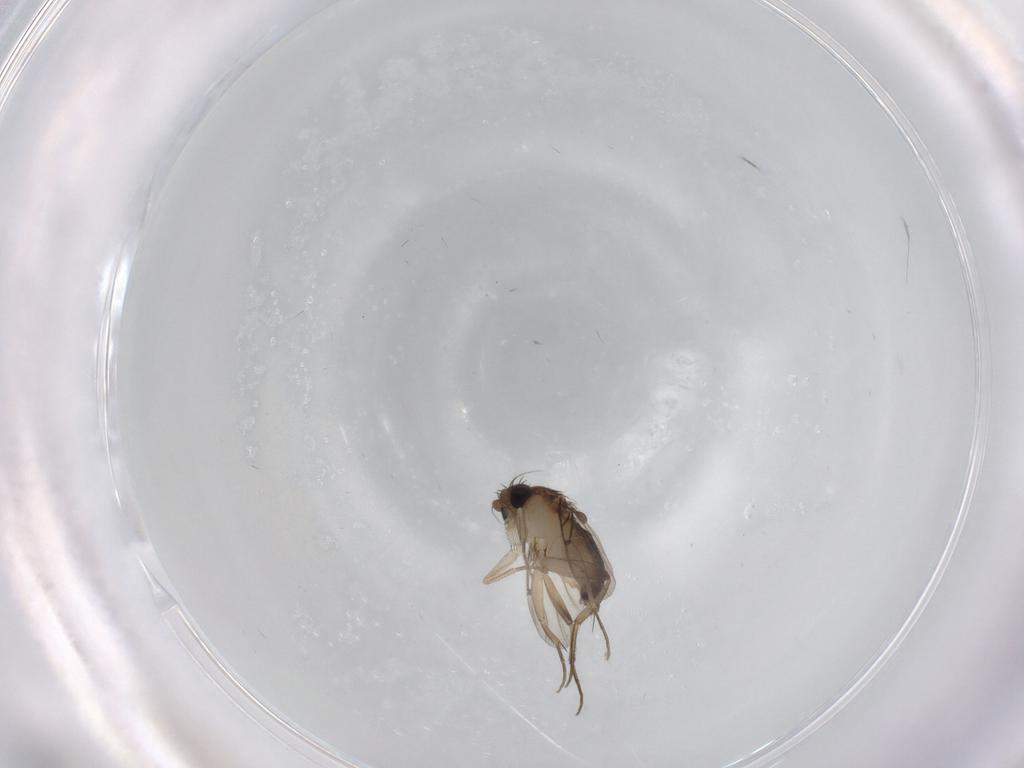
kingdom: Animalia
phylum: Arthropoda
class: Insecta
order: Diptera
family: Phoridae
